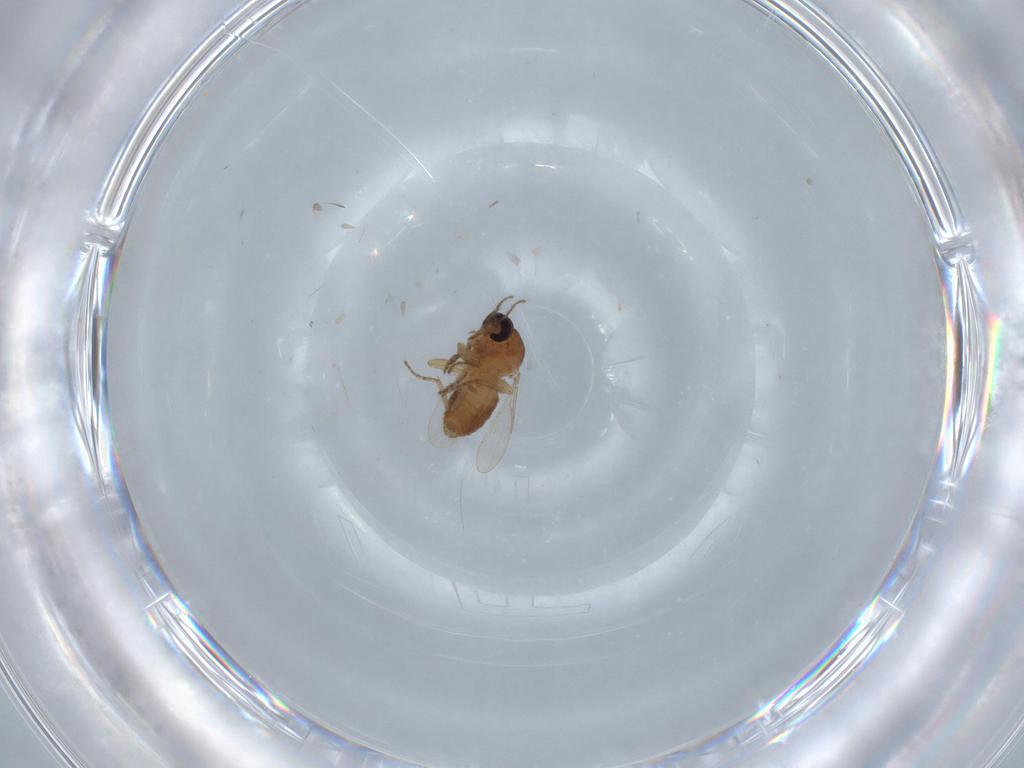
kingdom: Animalia
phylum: Arthropoda
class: Insecta
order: Diptera
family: Ceratopogonidae
